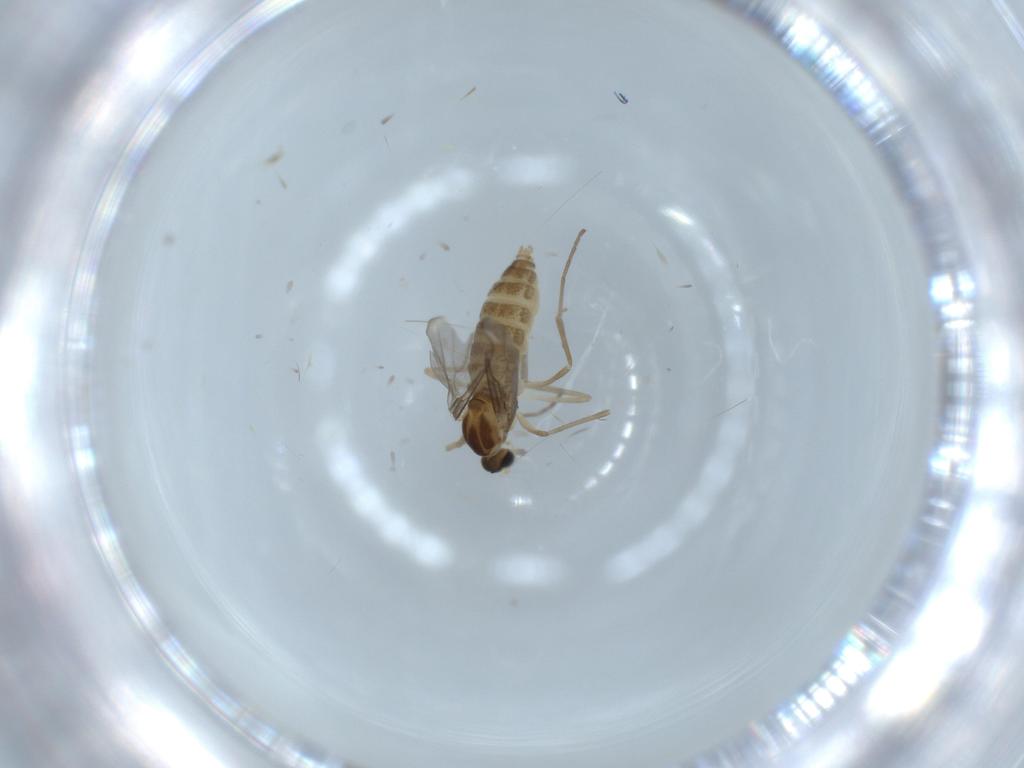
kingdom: Animalia
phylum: Arthropoda
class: Insecta
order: Diptera
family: Cecidomyiidae
